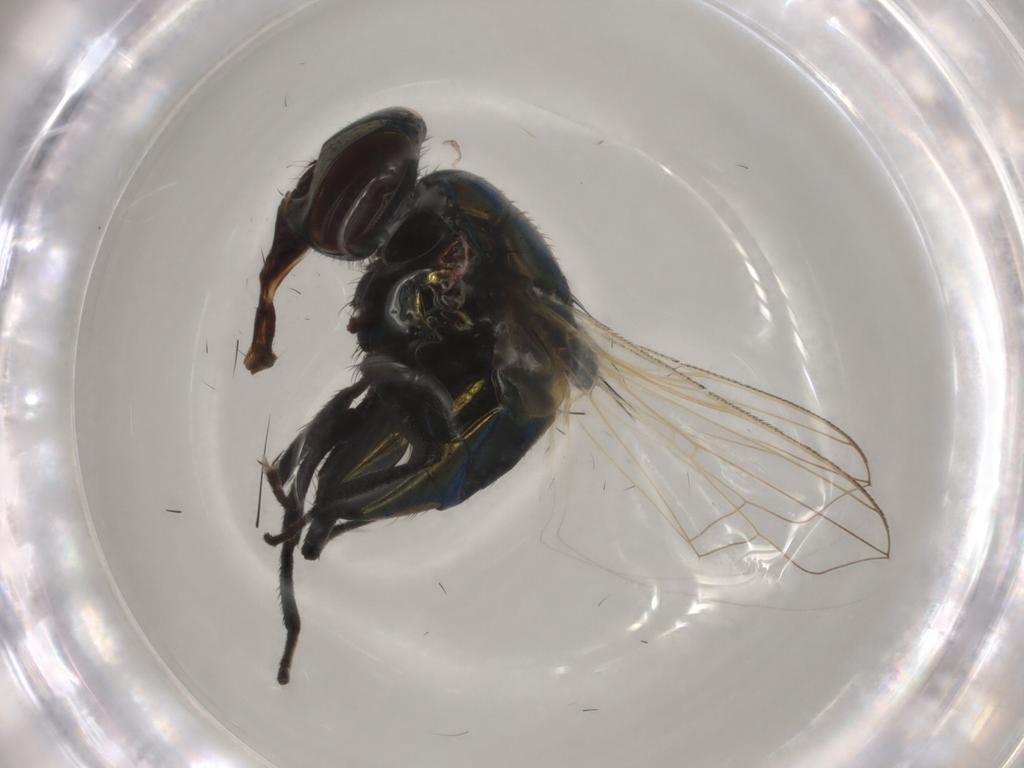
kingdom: Animalia
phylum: Arthropoda
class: Insecta
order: Diptera
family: Muscidae
